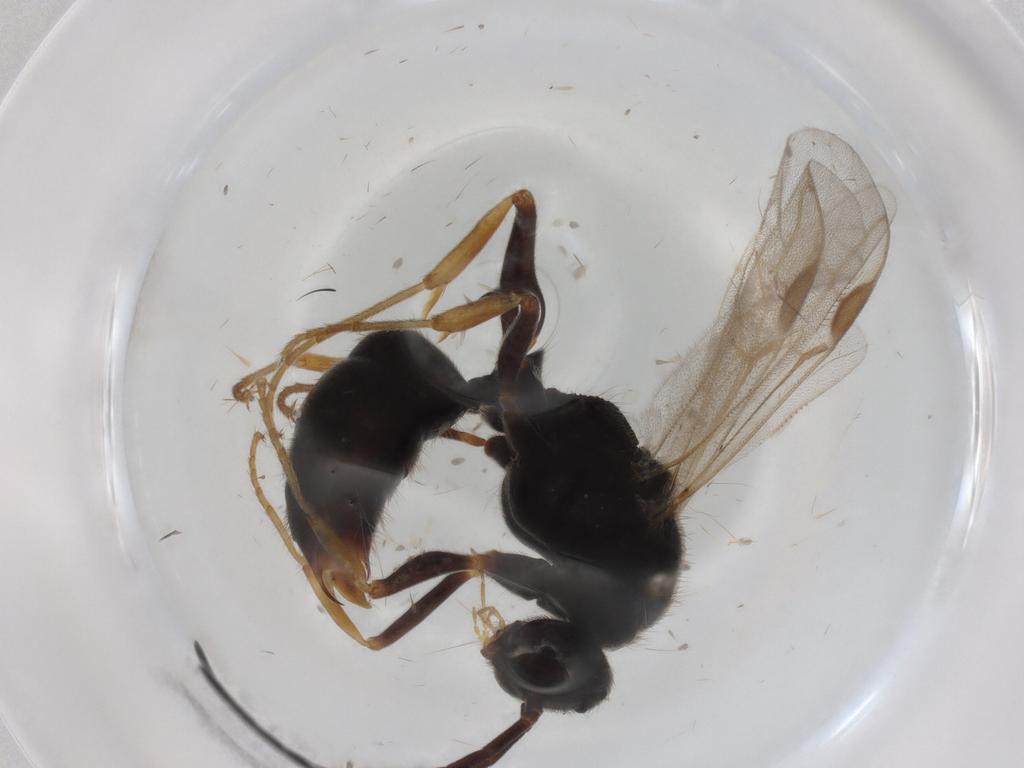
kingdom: Animalia
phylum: Arthropoda
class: Insecta
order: Hymenoptera
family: Formicidae
